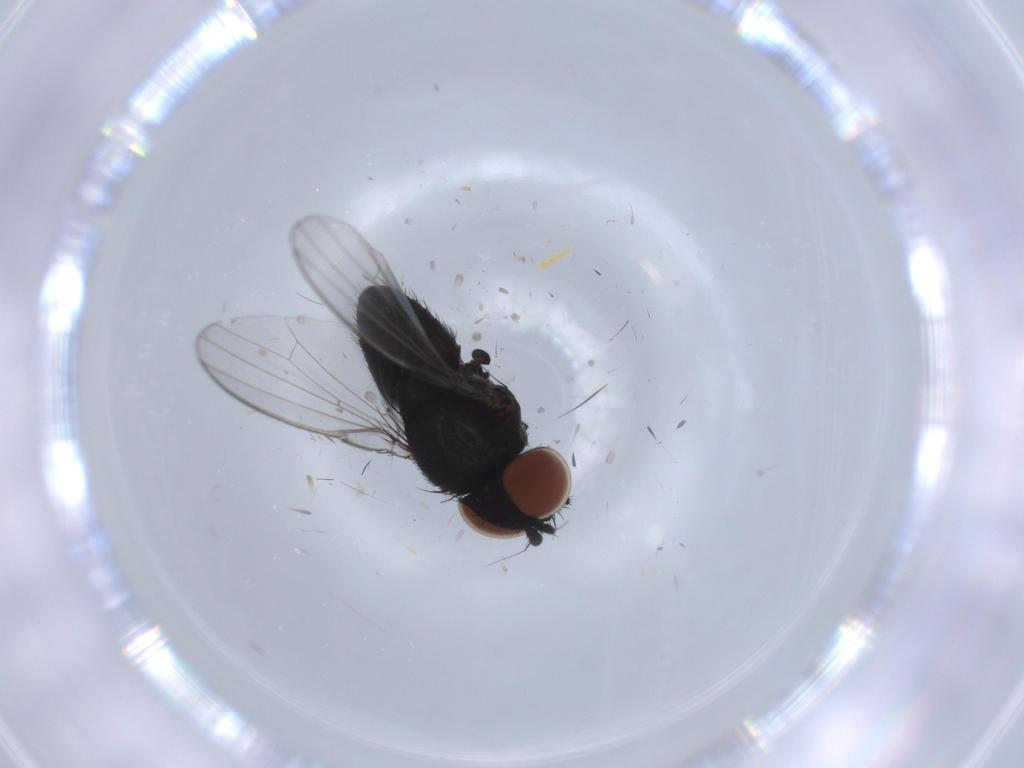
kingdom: Animalia
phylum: Arthropoda
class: Insecta
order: Diptera
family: Milichiidae
